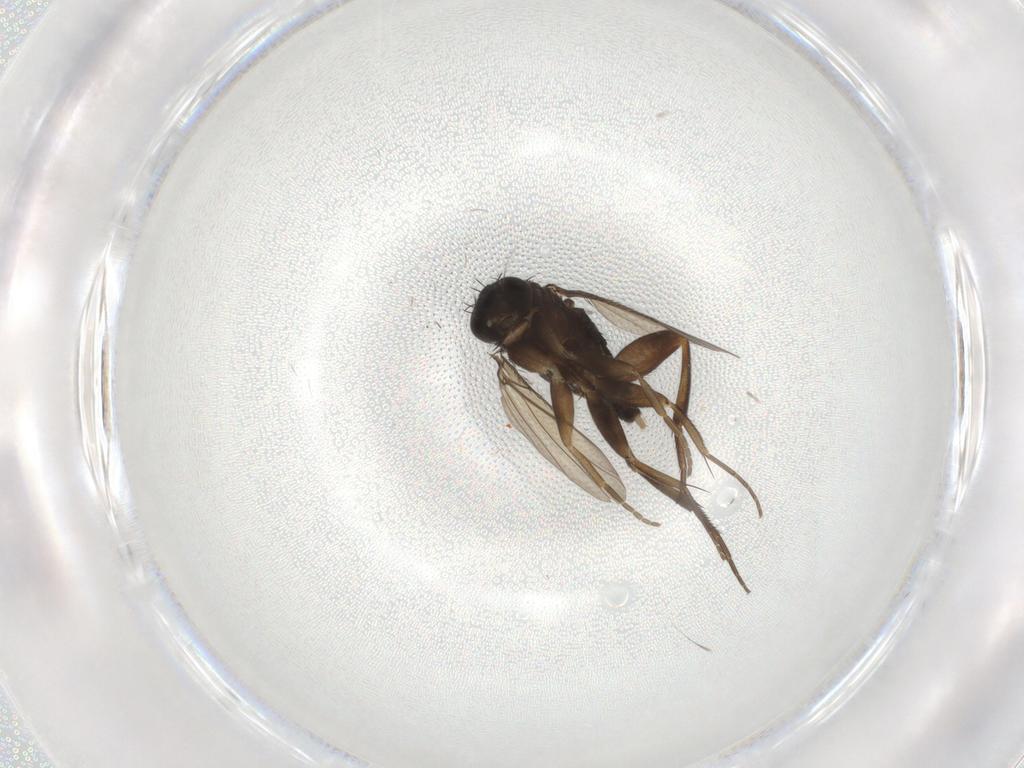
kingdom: Animalia
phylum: Arthropoda
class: Insecta
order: Diptera
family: Phoridae
